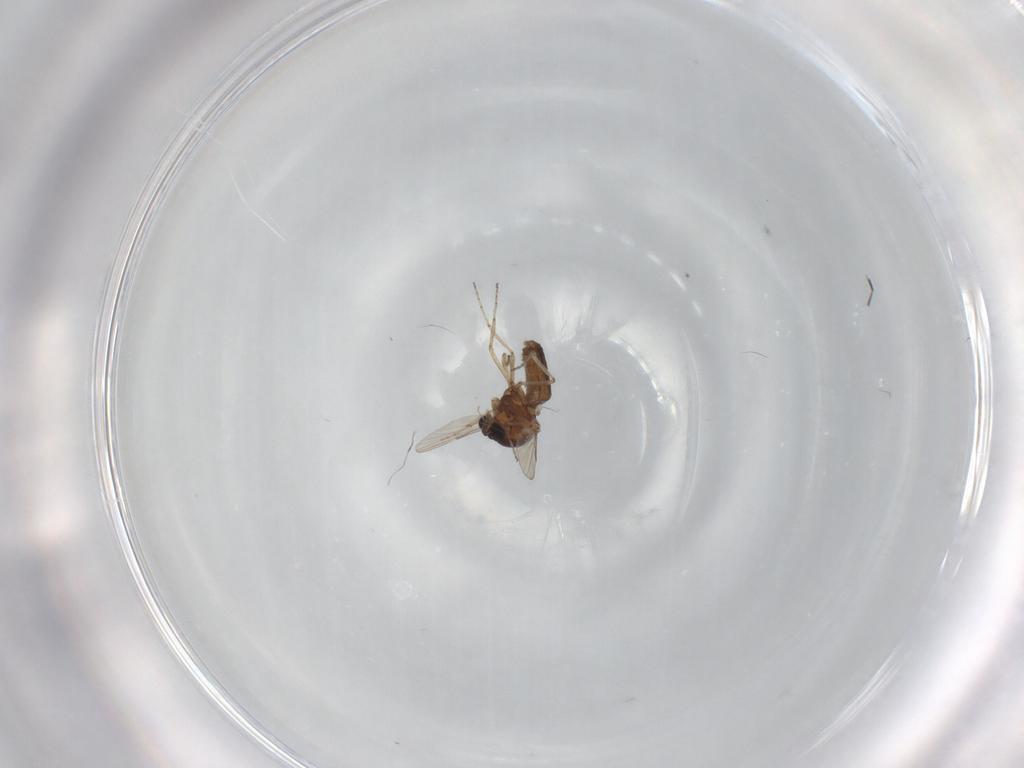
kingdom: Animalia
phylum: Arthropoda
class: Insecta
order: Diptera
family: Ceratopogonidae
